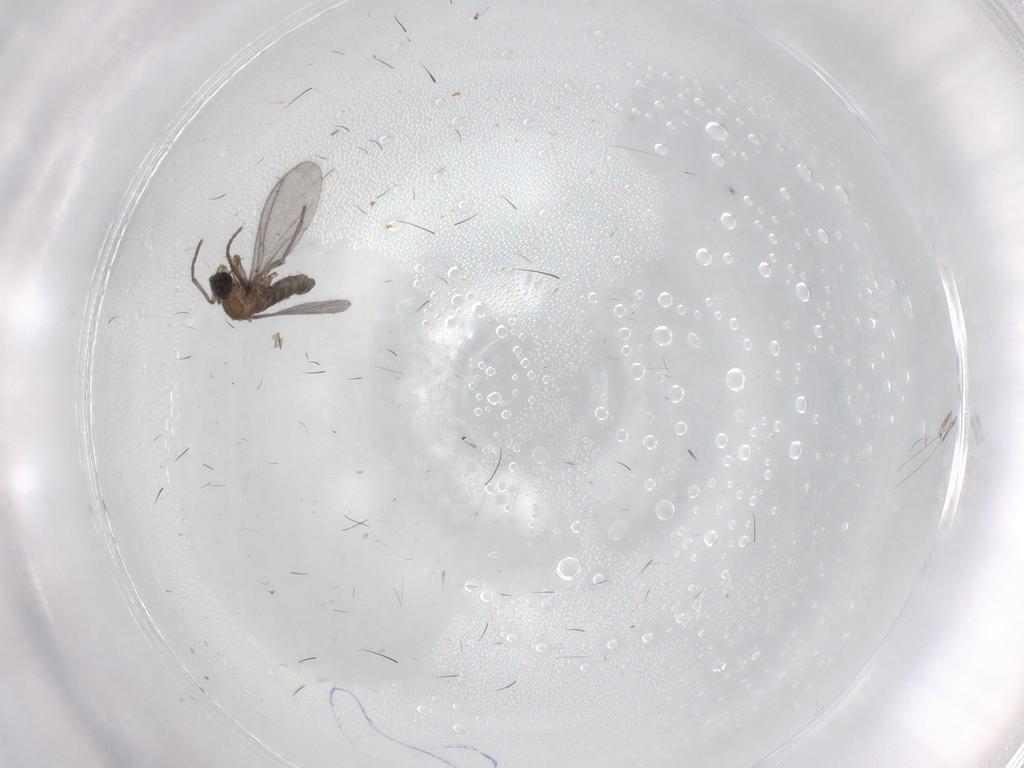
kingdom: Animalia
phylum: Arthropoda
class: Insecta
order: Diptera
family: Sciaridae
